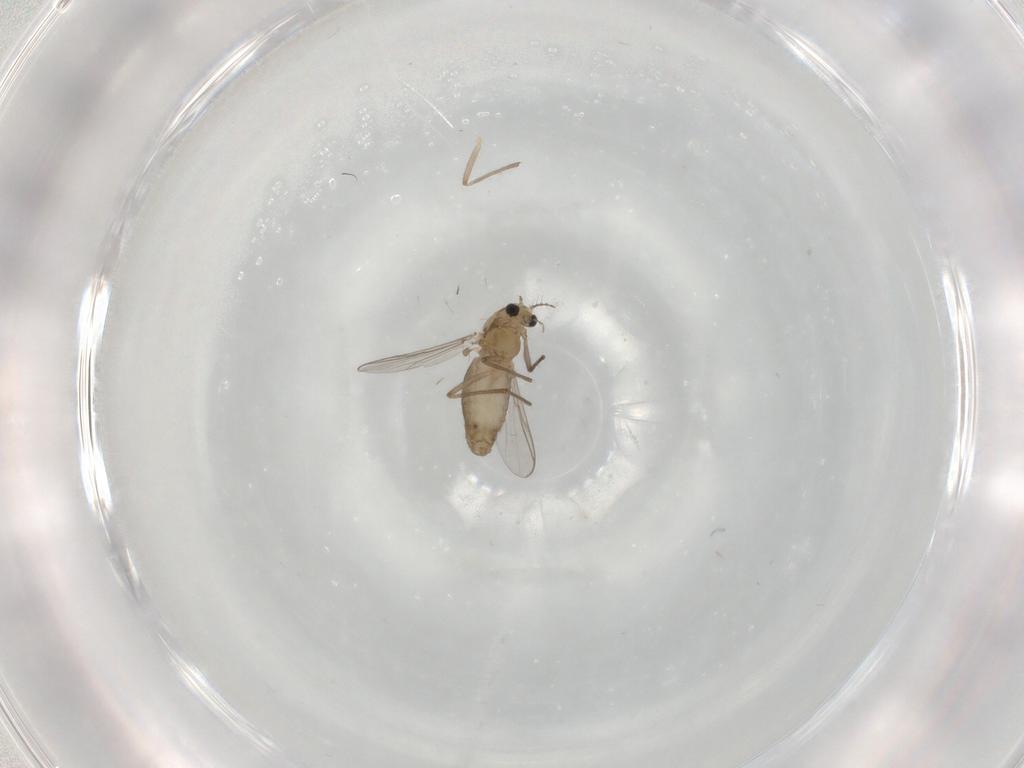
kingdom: Animalia
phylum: Arthropoda
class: Insecta
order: Diptera
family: Chironomidae
